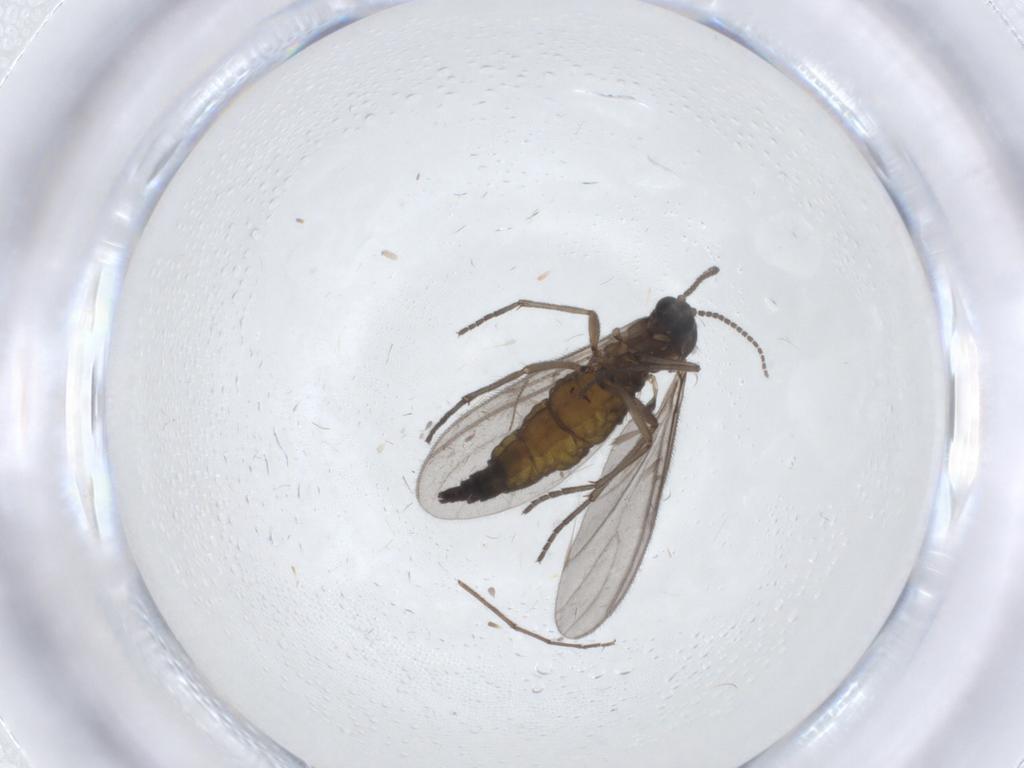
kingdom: Animalia
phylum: Arthropoda
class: Insecta
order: Diptera
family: Sciaridae
